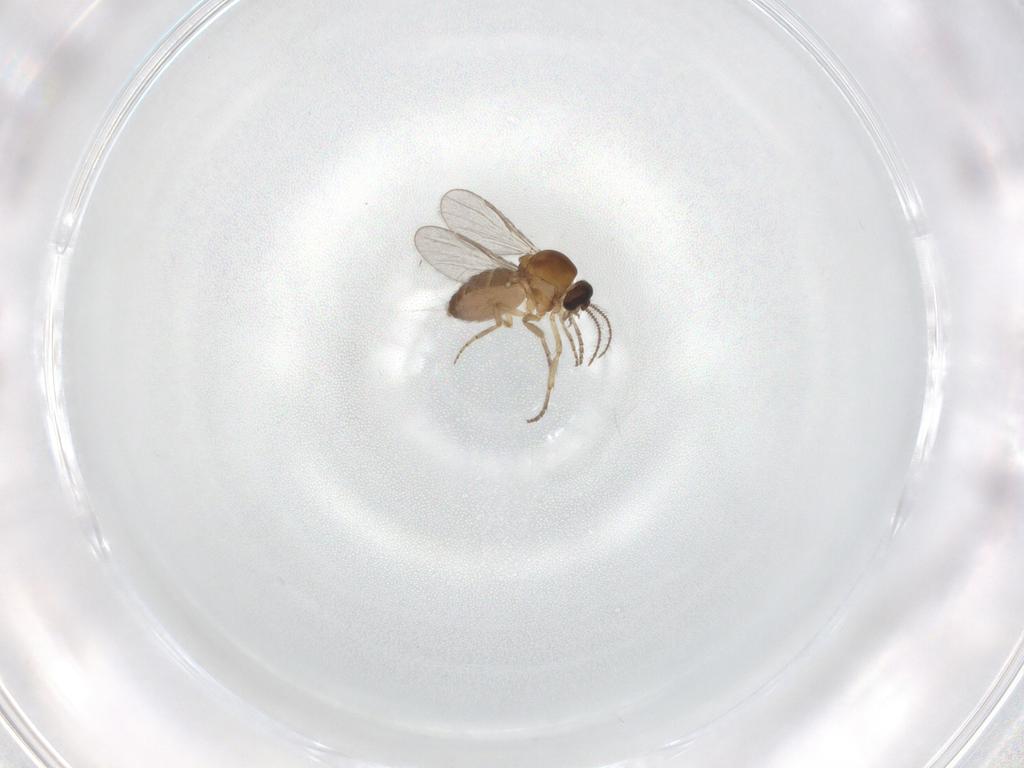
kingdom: Animalia
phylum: Arthropoda
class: Insecta
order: Diptera
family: Ceratopogonidae
